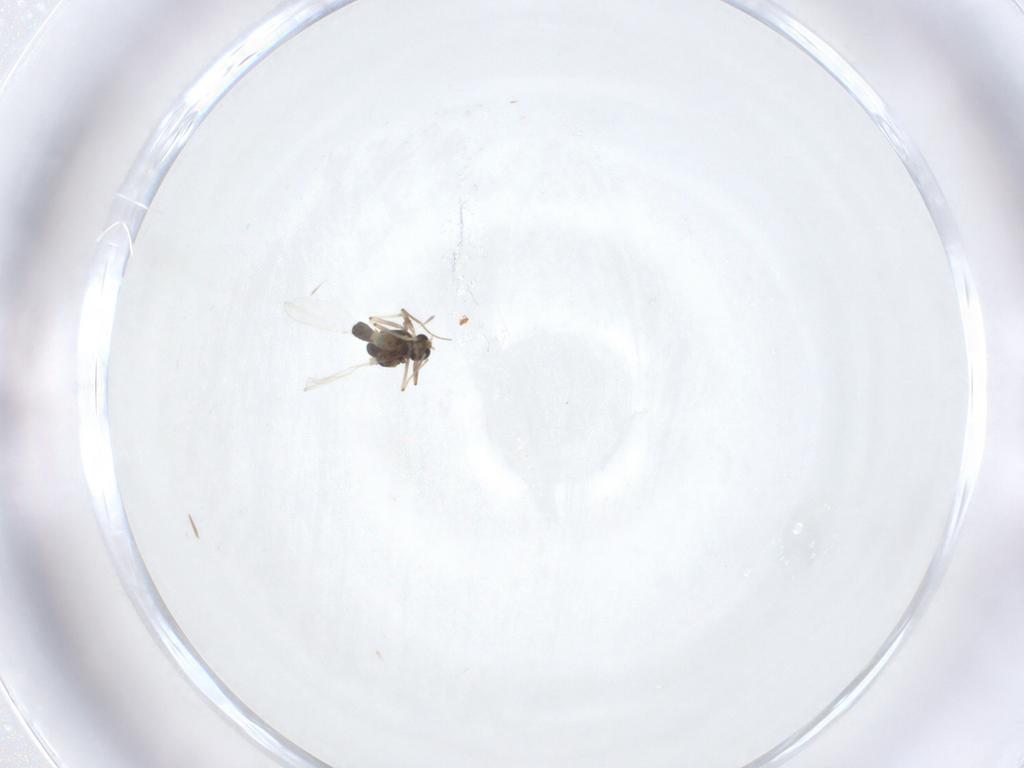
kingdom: Animalia
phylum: Arthropoda
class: Insecta
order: Diptera
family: Chironomidae
